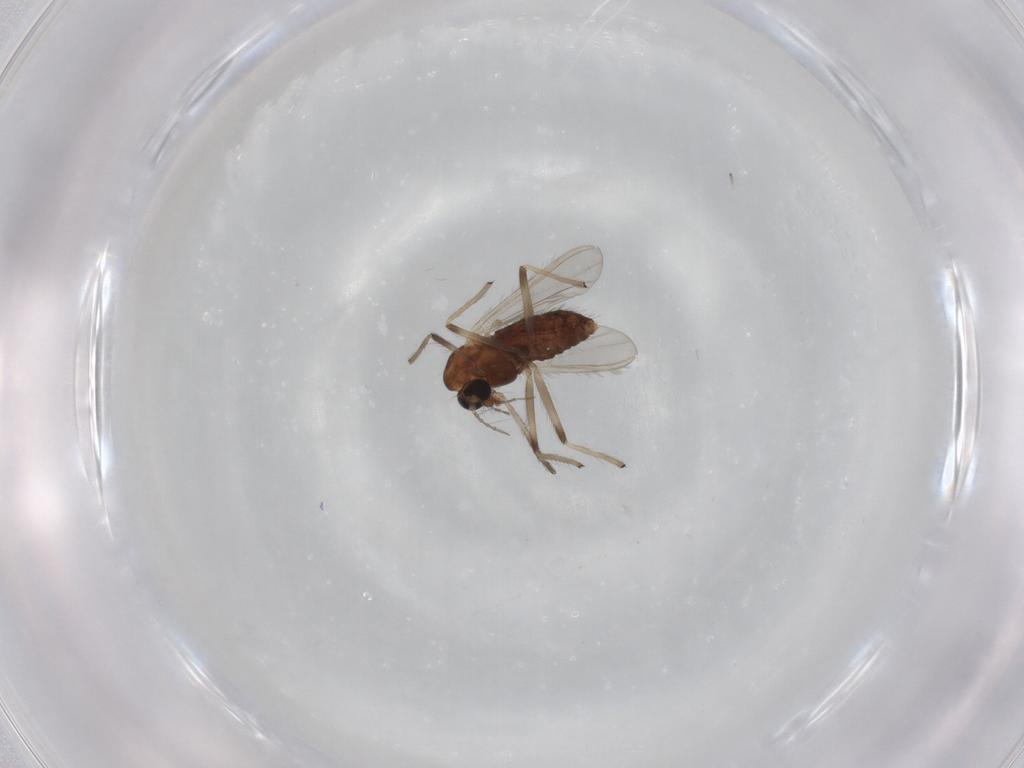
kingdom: Animalia
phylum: Arthropoda
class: Insecta
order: Diptera
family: Chironomidae
